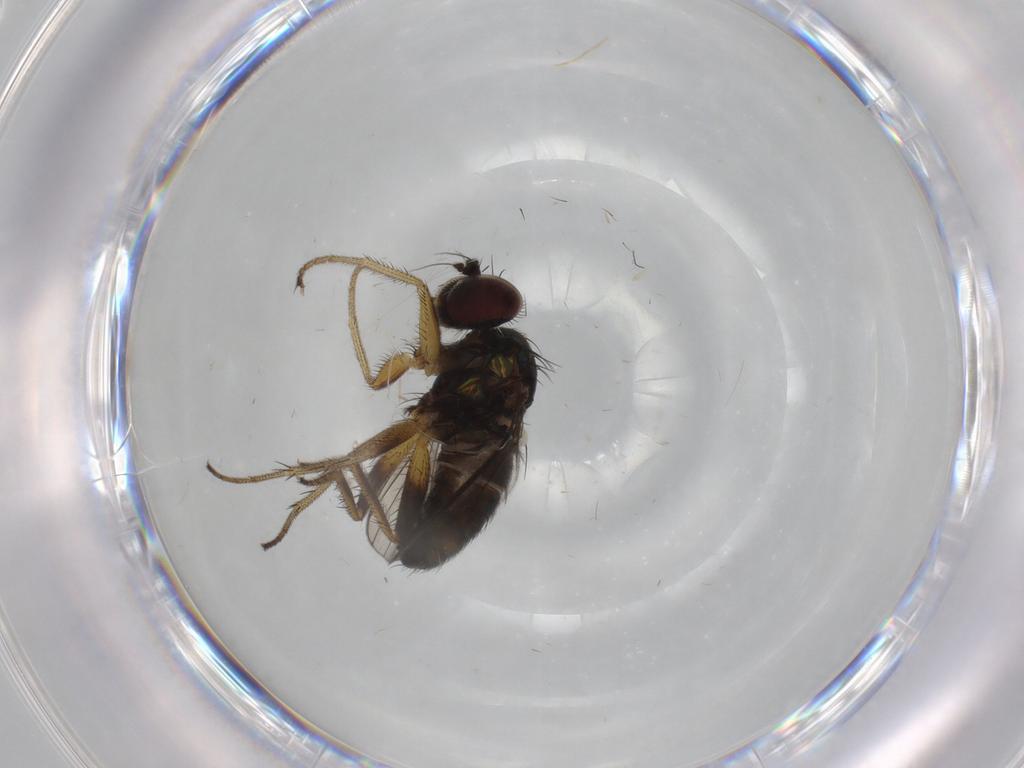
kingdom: Animalia
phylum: Arthropoda
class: Insecta
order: Diptera
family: Dolichopodidae
